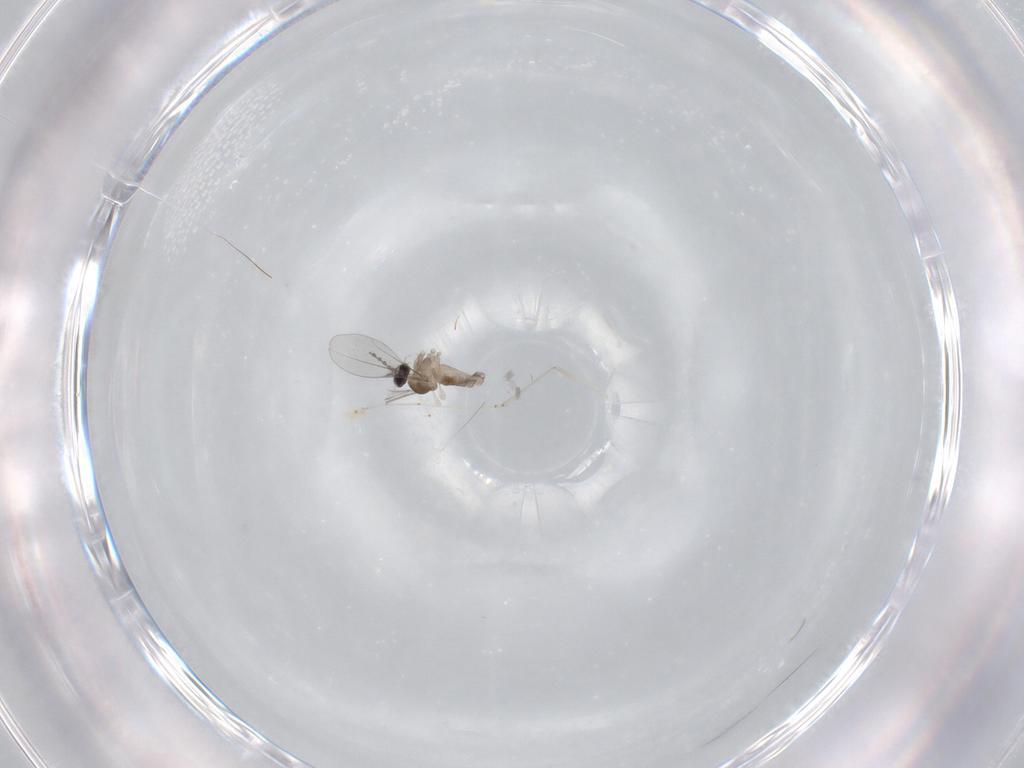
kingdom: Animalia
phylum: Arthropoda
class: Insecta
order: Diptera
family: Cecidomyiidae
